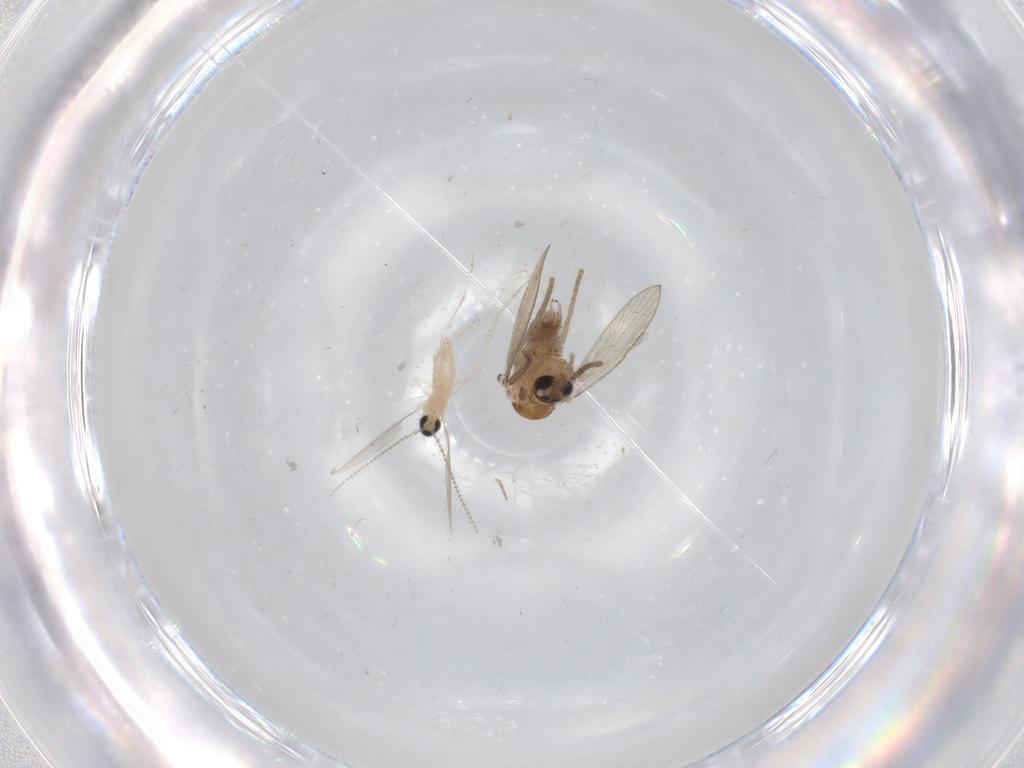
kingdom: Animalia
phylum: Arthropoda
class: Insecta
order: Diptera
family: Cecidomyiidae
